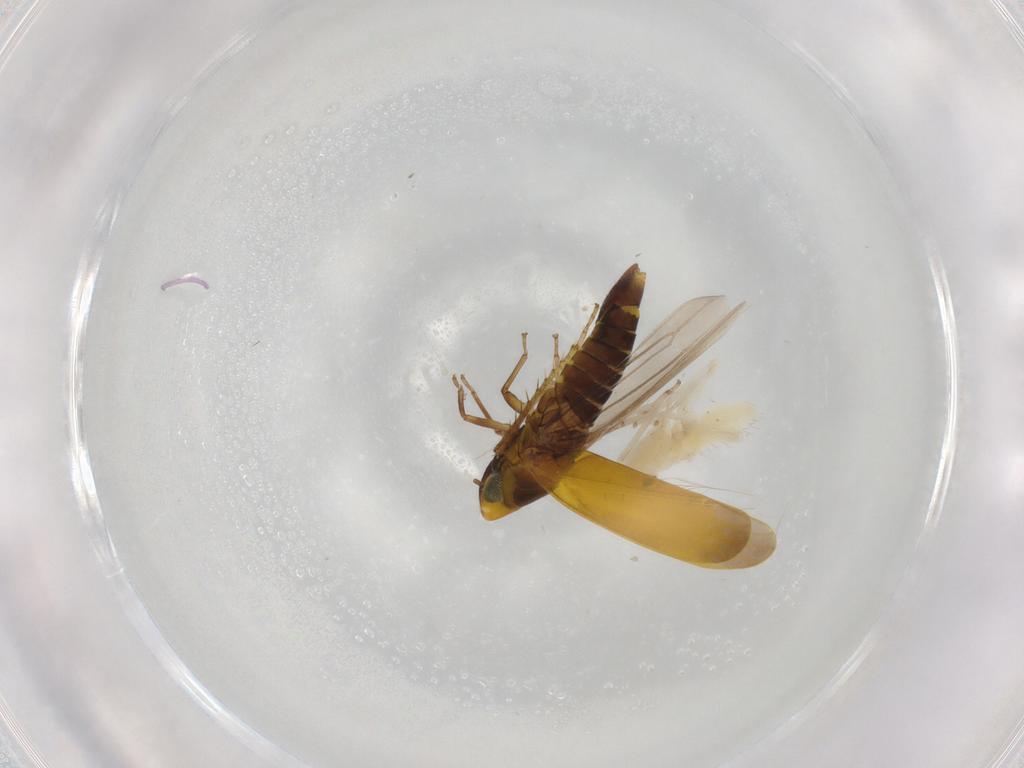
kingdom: Animalia
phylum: Arthropoda
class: Insecta
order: Hemiptera
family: Cicadellidae
